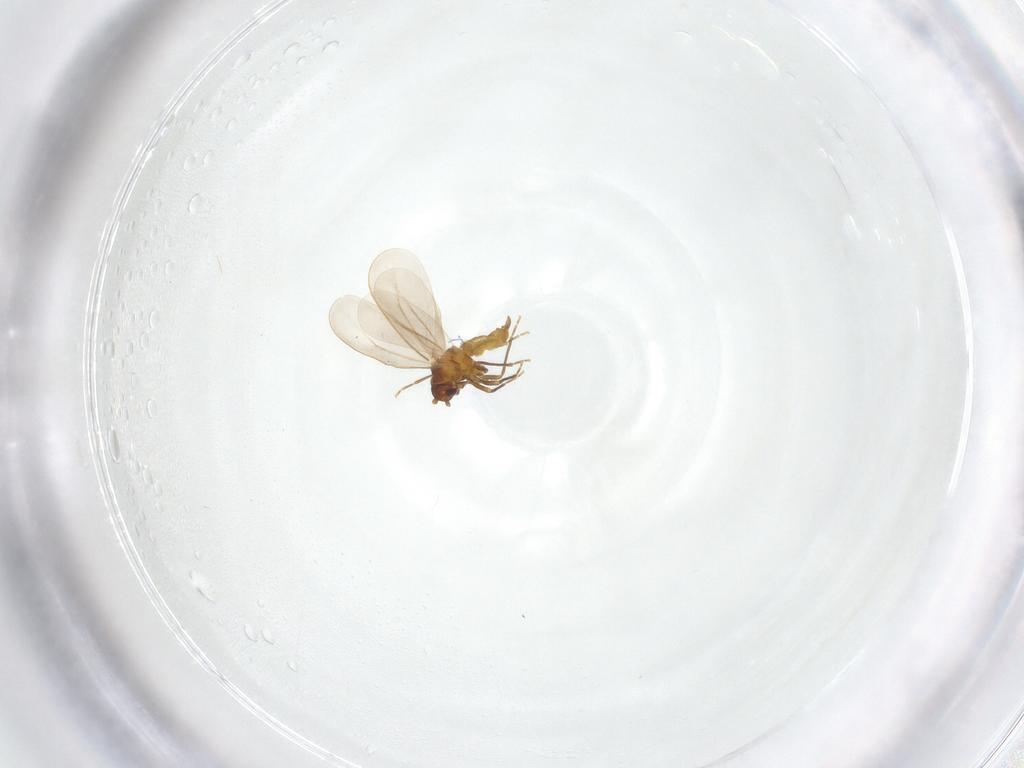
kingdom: Animalia
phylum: Arthropoda
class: Insecta
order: Hemiptera
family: Aleyrodidae
